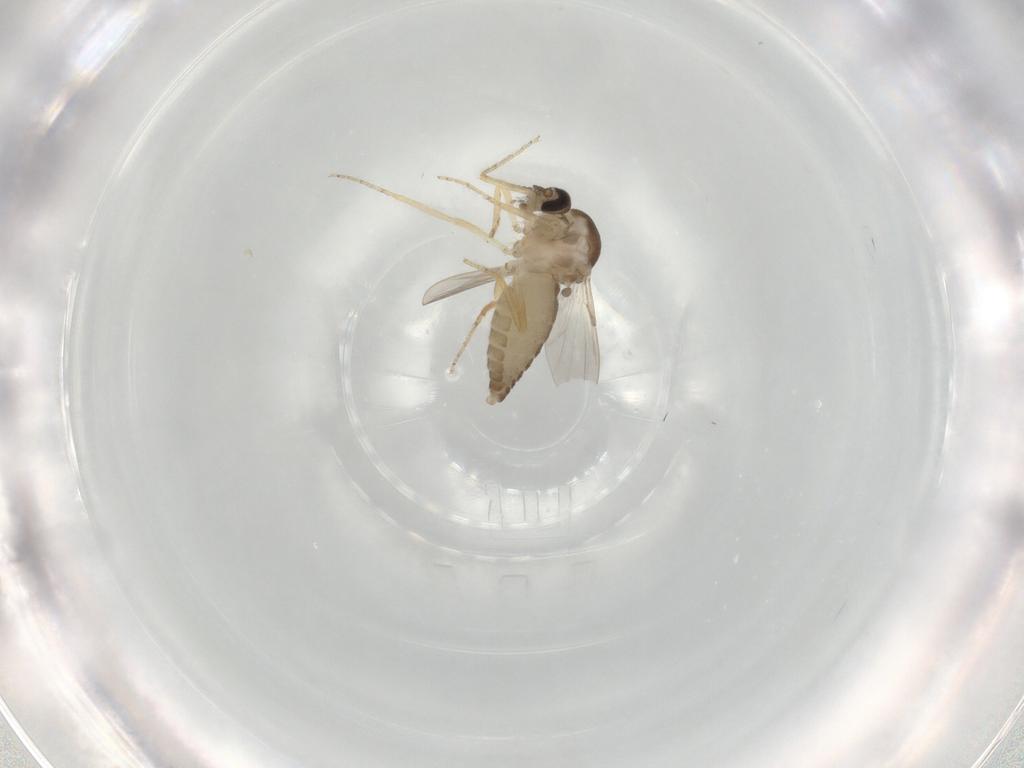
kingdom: Animalia
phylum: Arthropoda
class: Insecta
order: Diptera
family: Ceratopogonidae
